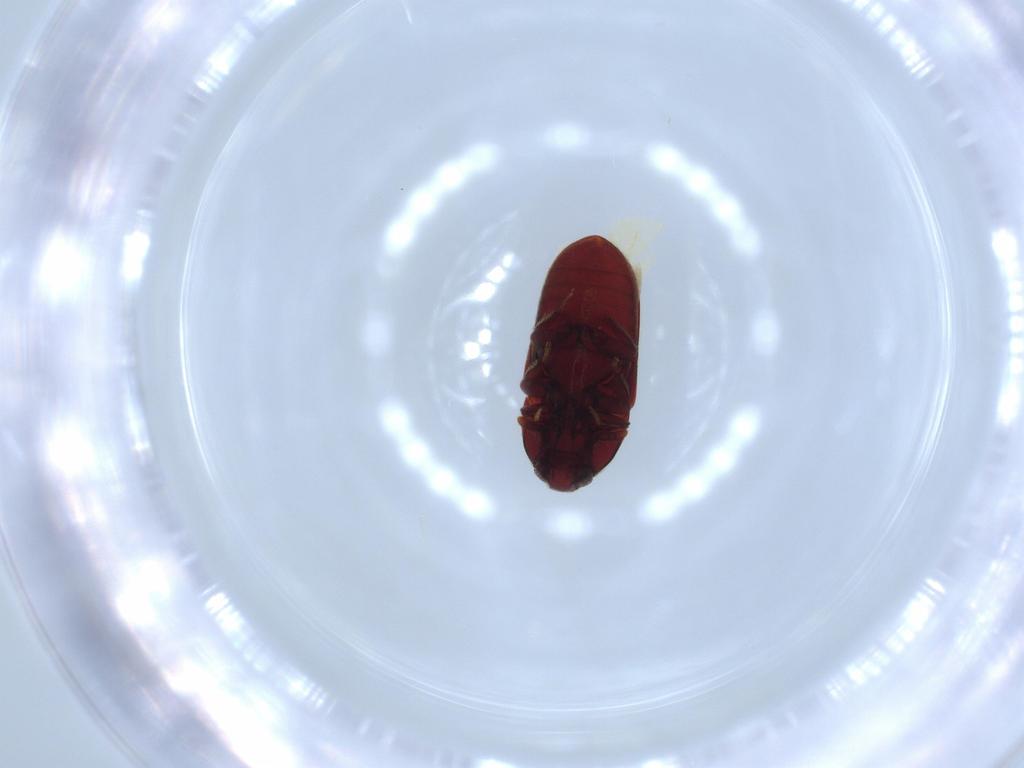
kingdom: Animalia
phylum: Arthropoda
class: Insecta
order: Coleoptera
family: Throscidae
